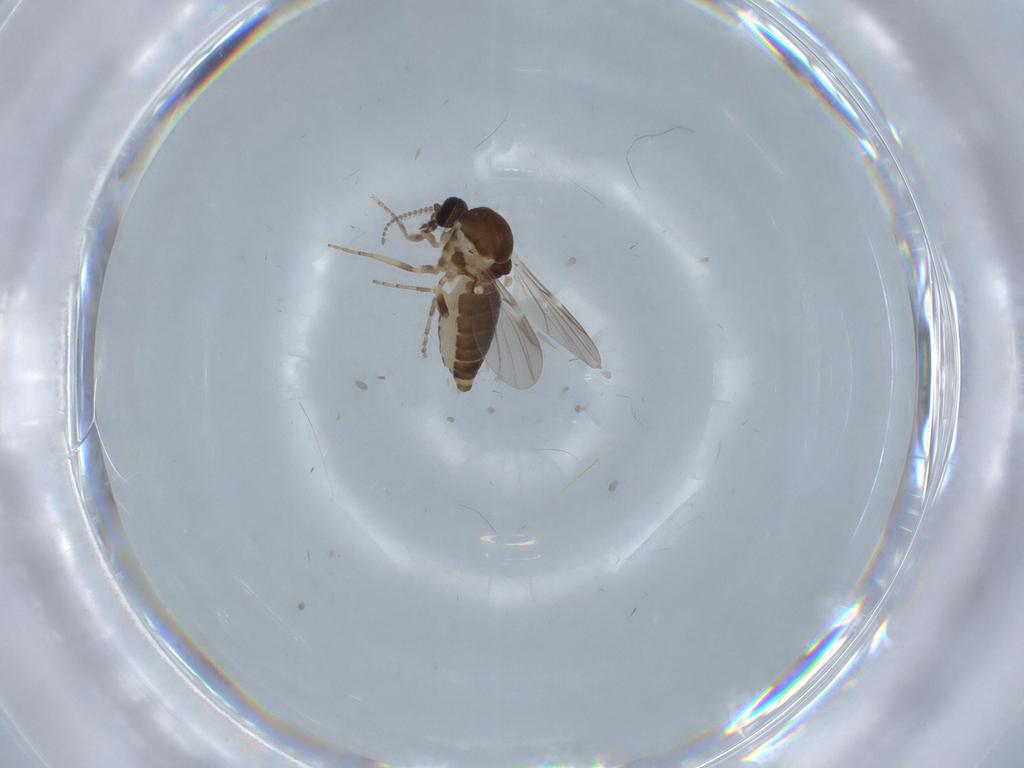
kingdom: Animalia
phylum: Arthropoda
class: Insecta
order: Diptera
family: Ceratopogonidae
